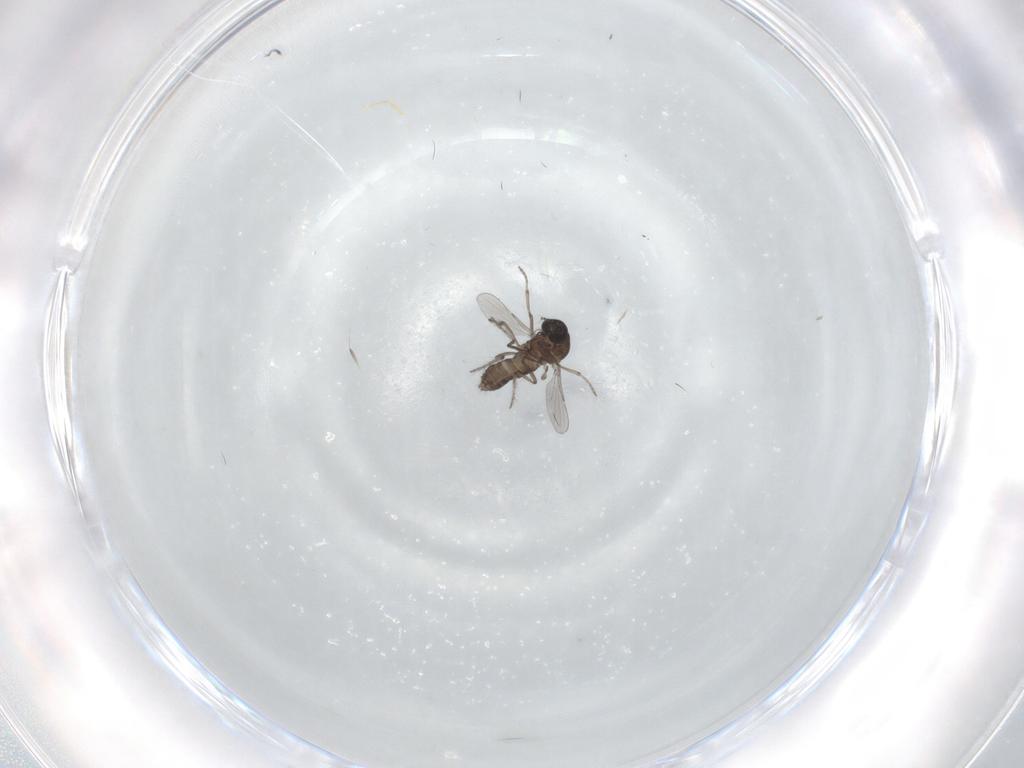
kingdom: Animalia
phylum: Arthropoda
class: Insecta
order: Diptera
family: Ceratopogonidae
